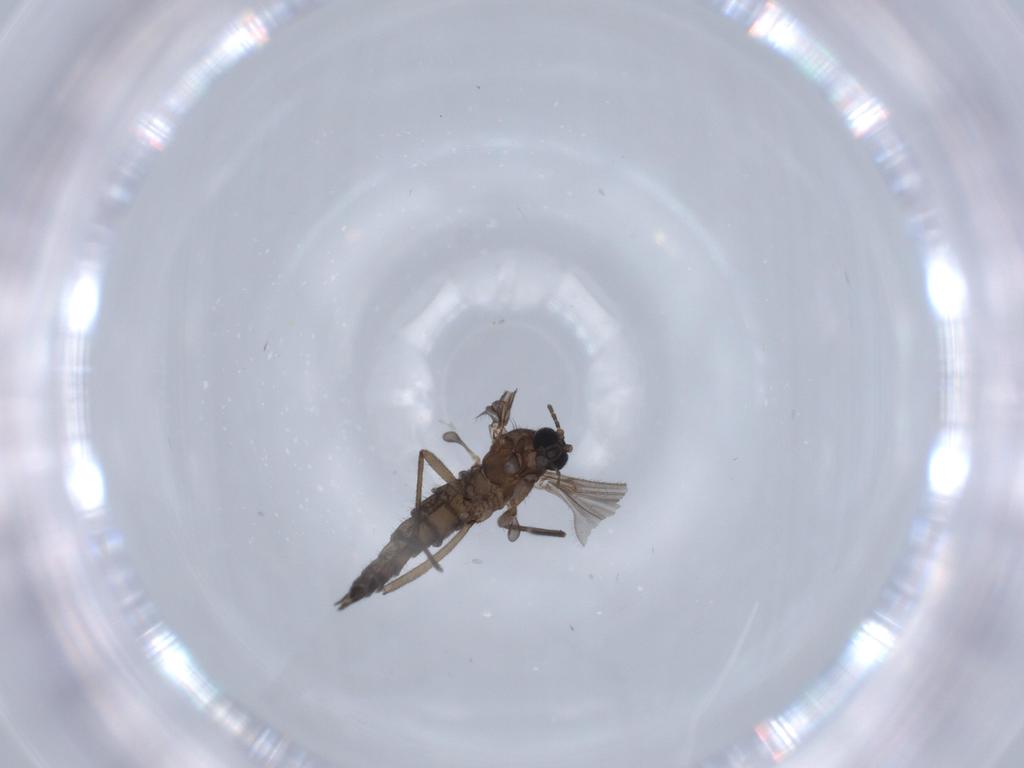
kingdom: Animalia
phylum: Arthropoda
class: Insecta
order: Diptera
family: Sciaridae
